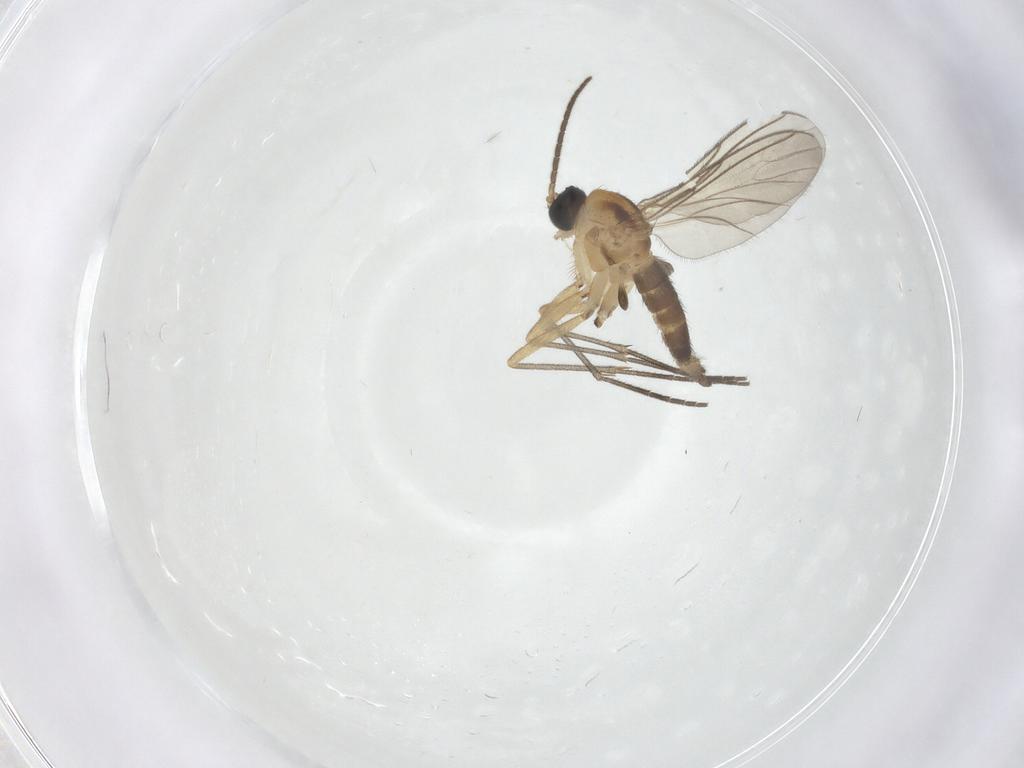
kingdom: Animalia
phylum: Arthropoda
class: Insecta
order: Diptera
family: Sciaridae
